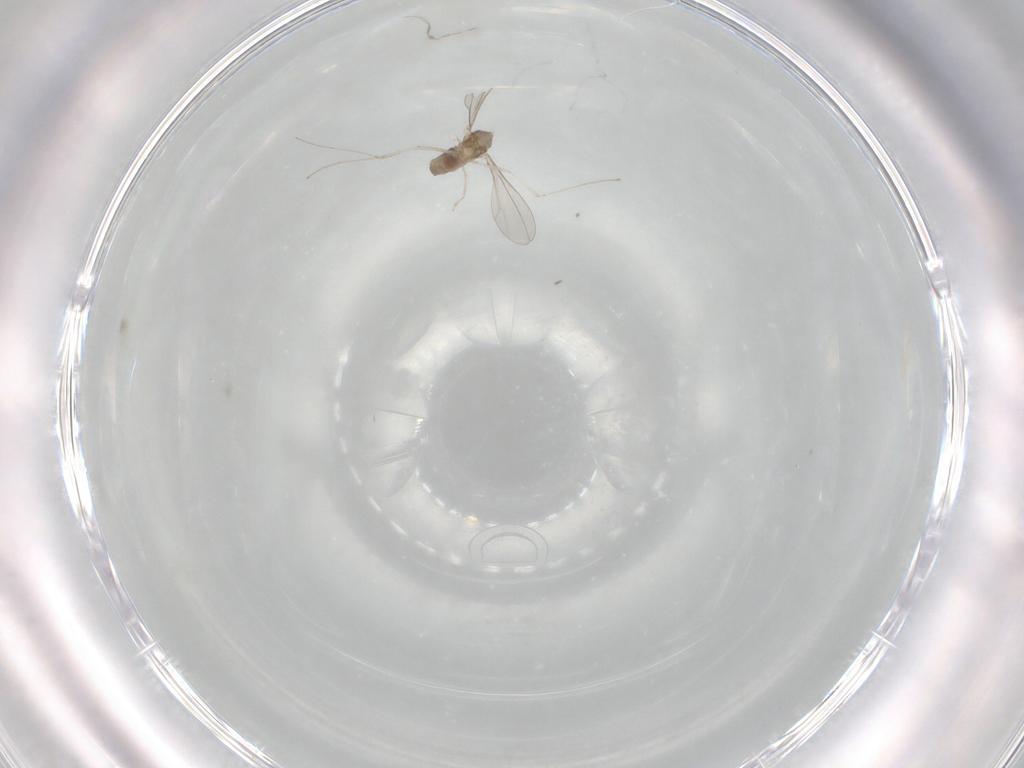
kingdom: Animalia
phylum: Arthropoda
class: Insecta
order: Diptera
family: Cecidomyiidae
